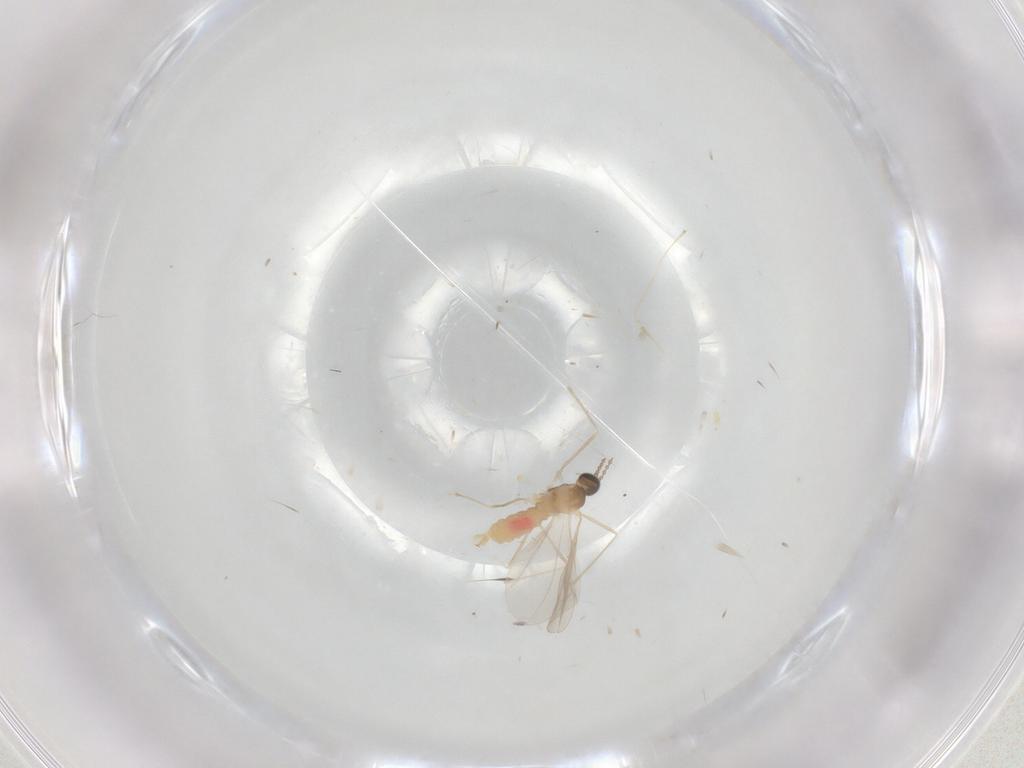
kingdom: Animalia
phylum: Arthropoda
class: Insecta
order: Diptera
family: Cecidomyiidae
